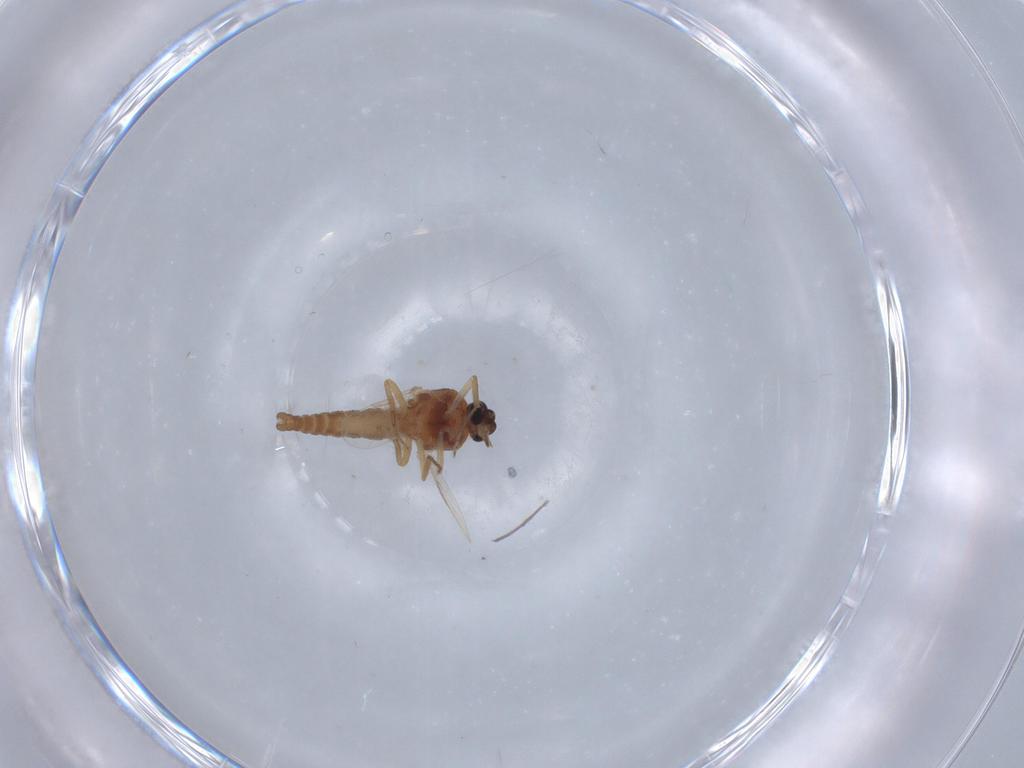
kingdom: Animalia
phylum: Arthropoda
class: Insecta
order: Diptera
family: Ceratopogonidae
